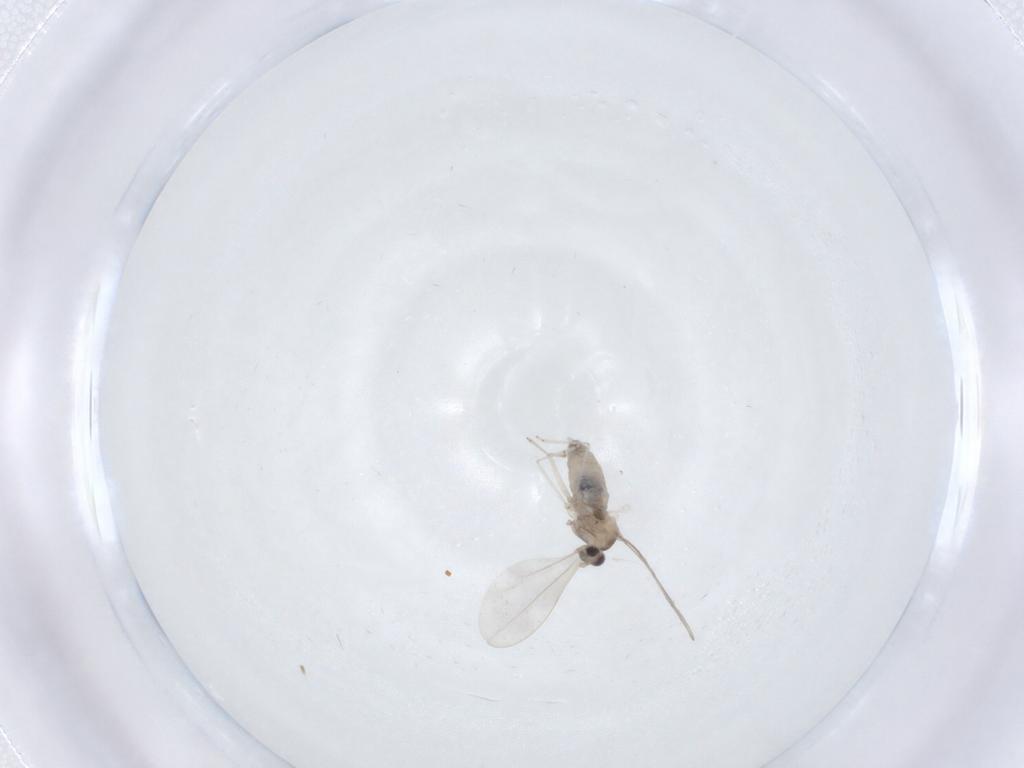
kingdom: Animalia
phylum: Arthropoda
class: Insecta
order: Diptera
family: Cecidomyiidae
